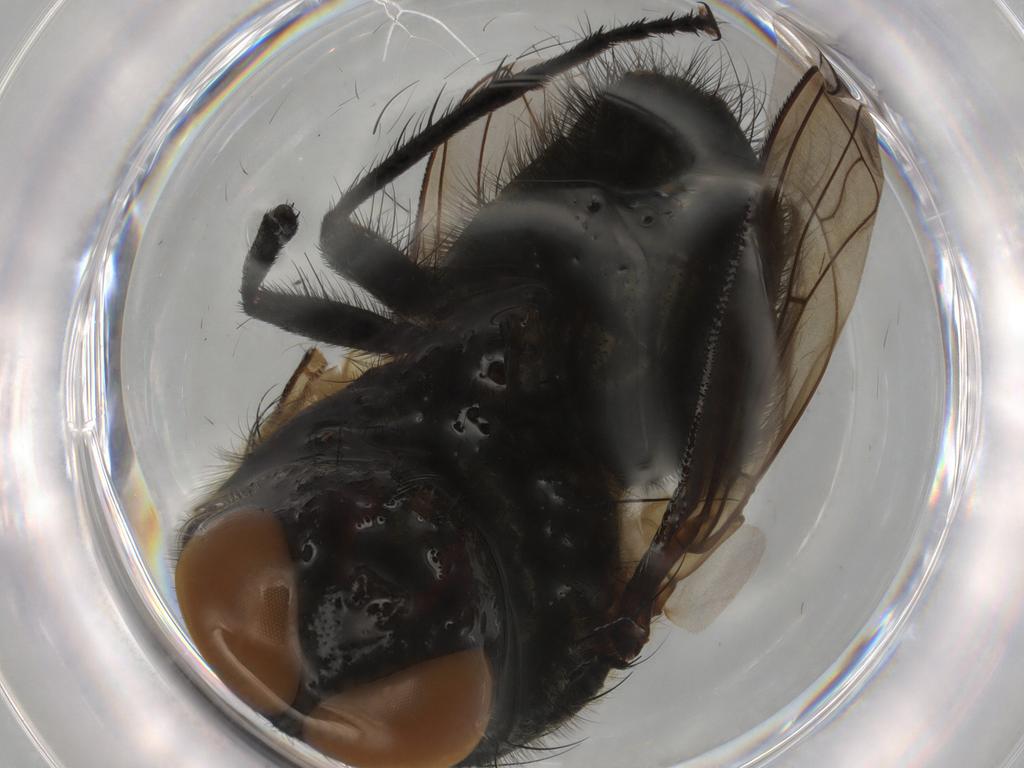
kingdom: Animalia
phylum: Arthropoda
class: Insecta
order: Diptera
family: Polleniidae
